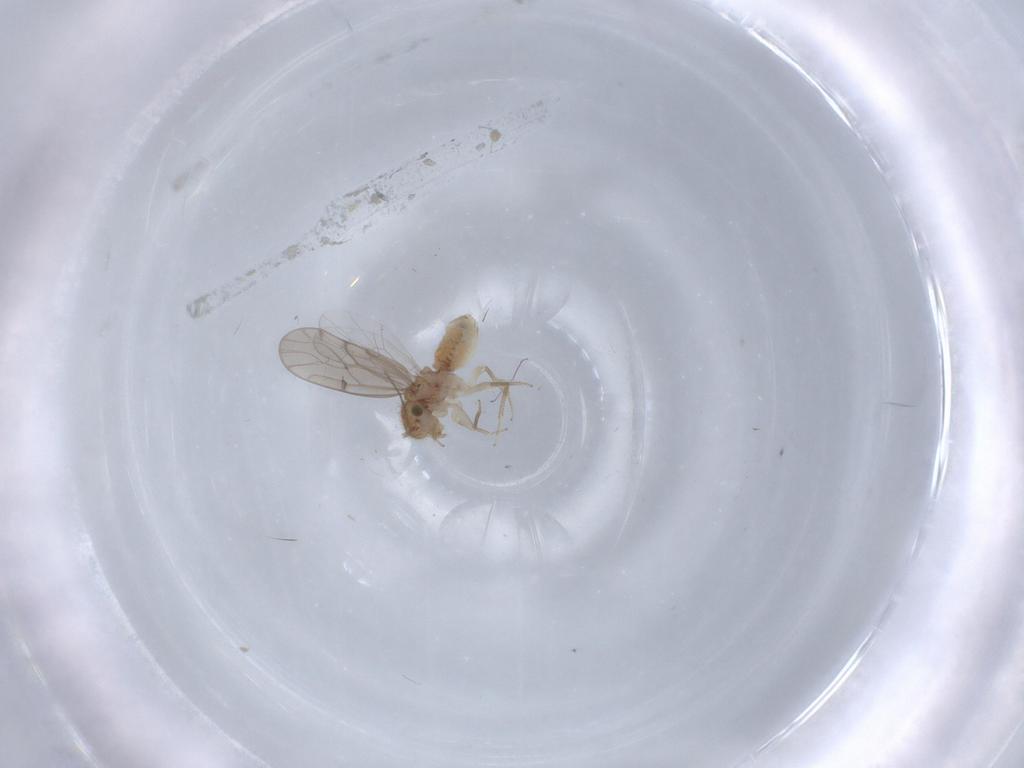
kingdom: Animalia
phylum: Arthropoda
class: Insecta
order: Psocodea
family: Ectopsocidae
